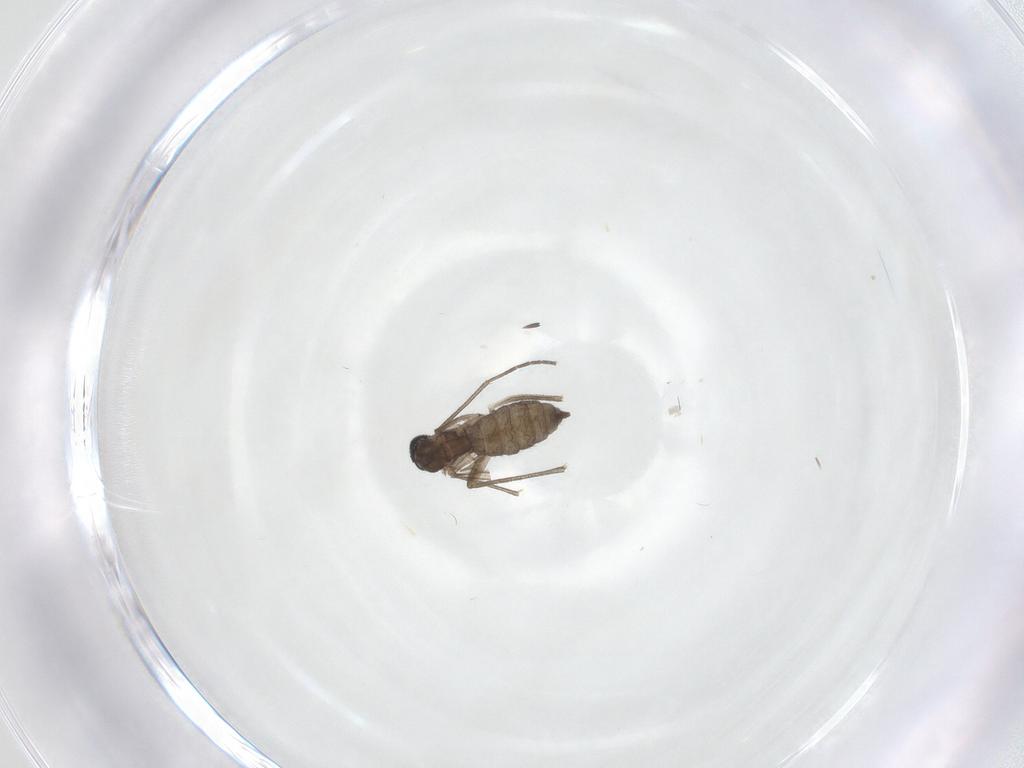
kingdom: Animalia
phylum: Arthropoda
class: Insecta
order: Diptera
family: Sciaridae
